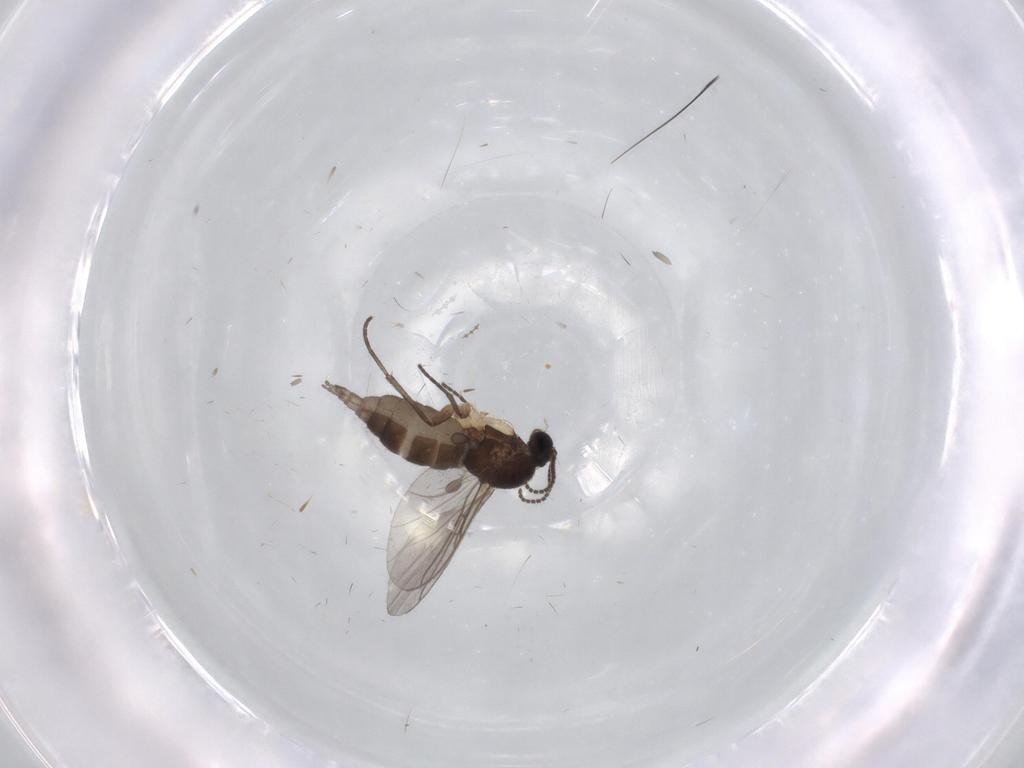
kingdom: Animalia
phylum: Arthropoda
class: Insecta
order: Diptera
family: Sciaridae
